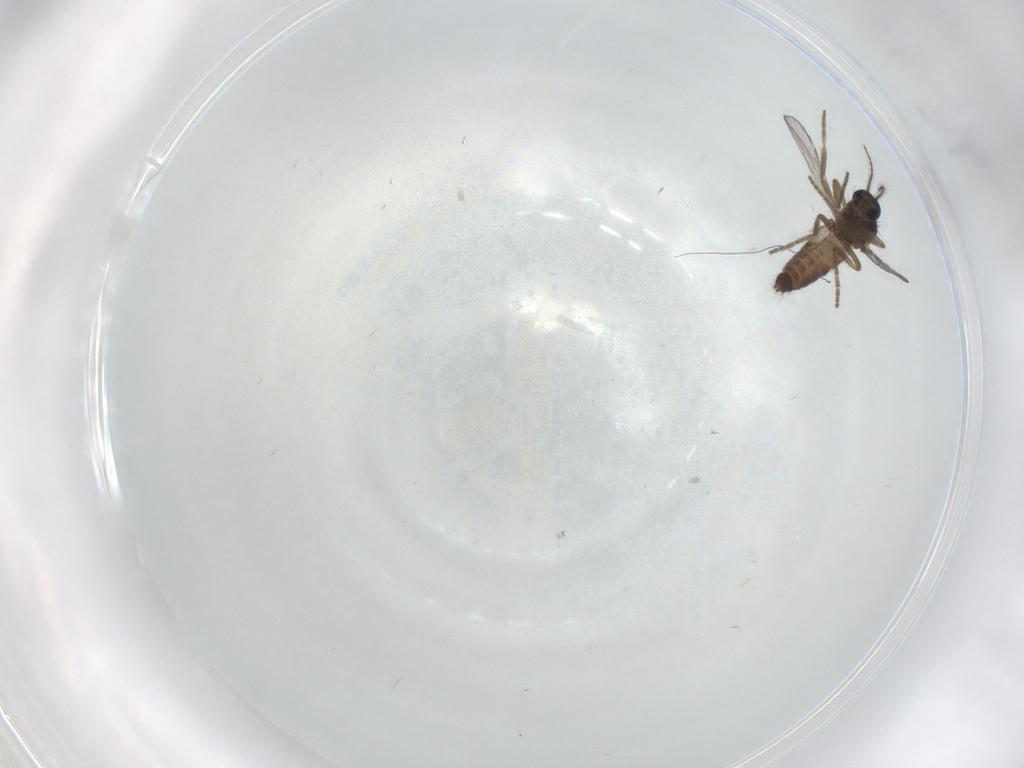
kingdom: Animalia
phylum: Arthropoda
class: Insecta
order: Diptera
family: Ceratopogonidae
